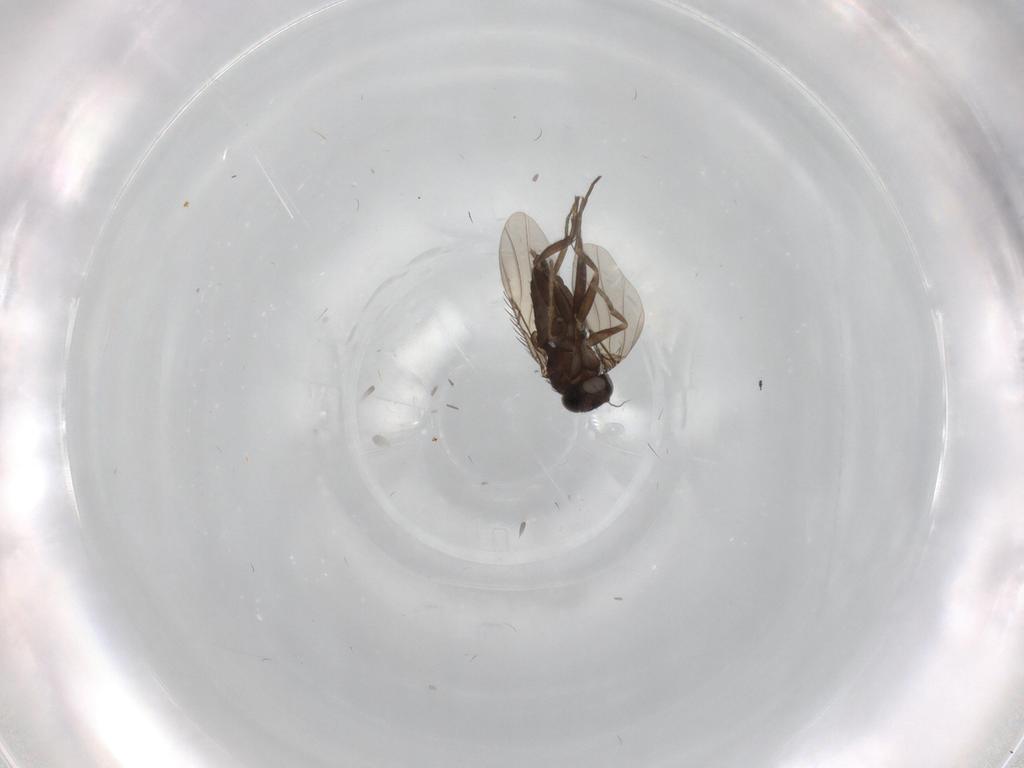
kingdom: Animalia
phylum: Arthropoda
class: Insecta
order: Diptera
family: Phoridae
